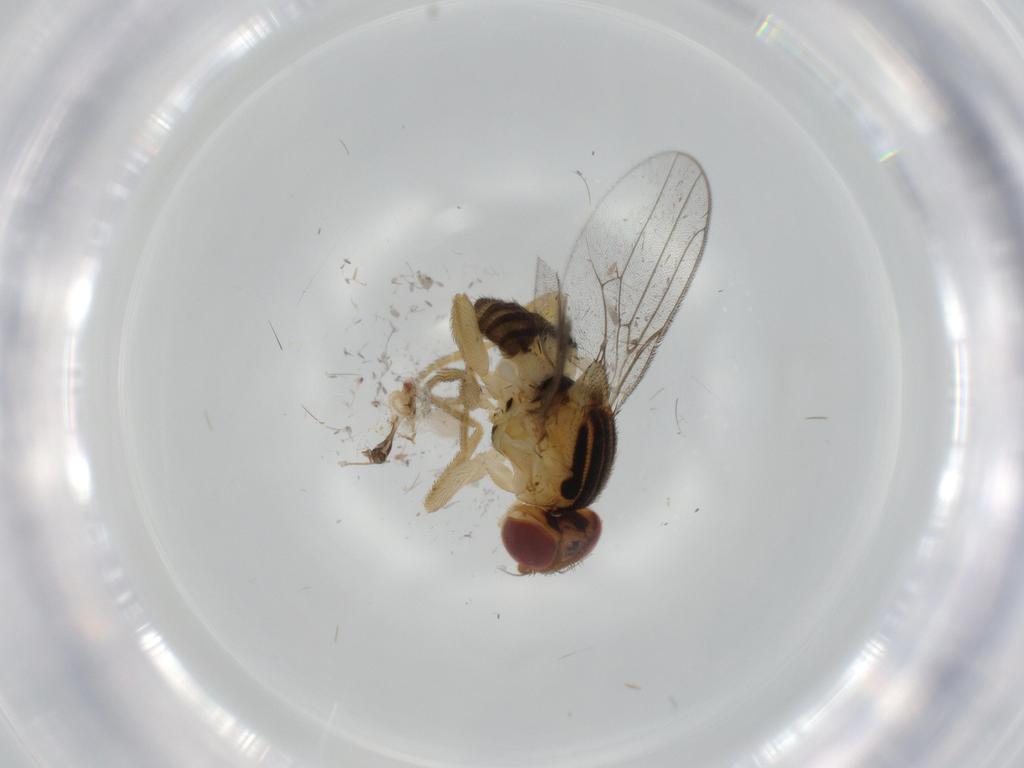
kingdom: Animalia
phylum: Arthropoda
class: Insecta
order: Diptera
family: Chloropidae
